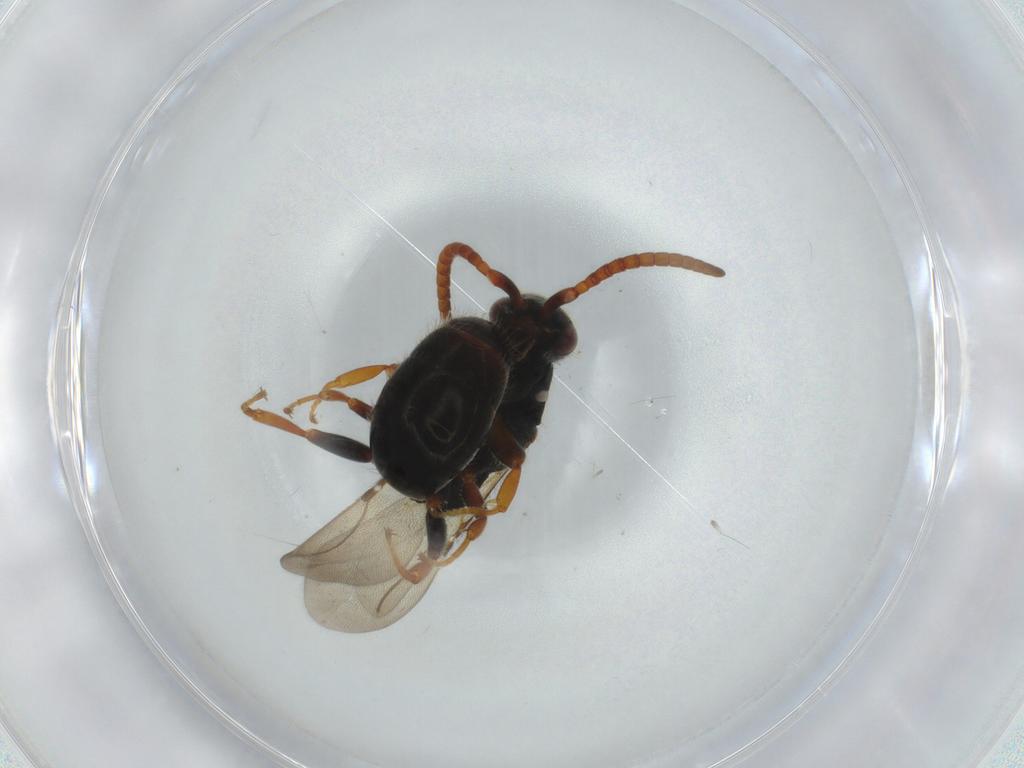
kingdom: Animalia
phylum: Arthropoda
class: Insecta
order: Hymenoptera
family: Bethylidae
